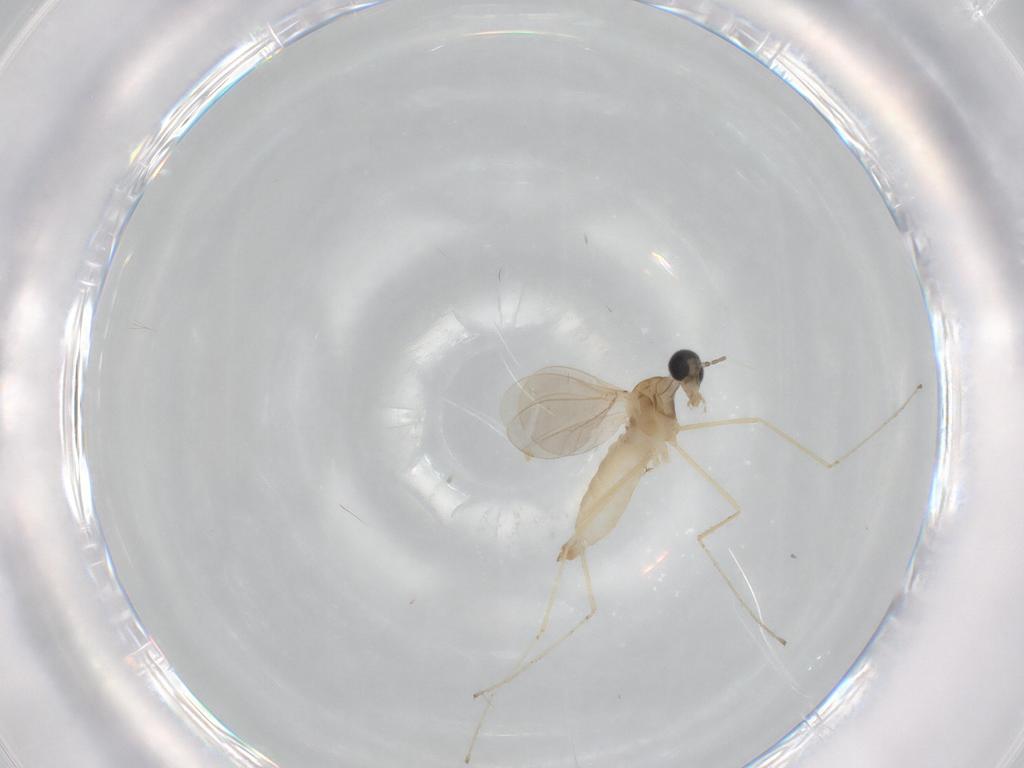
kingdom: Animalia
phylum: Arthropoda
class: Insecta
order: Diptera
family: Cecidomyiidae
